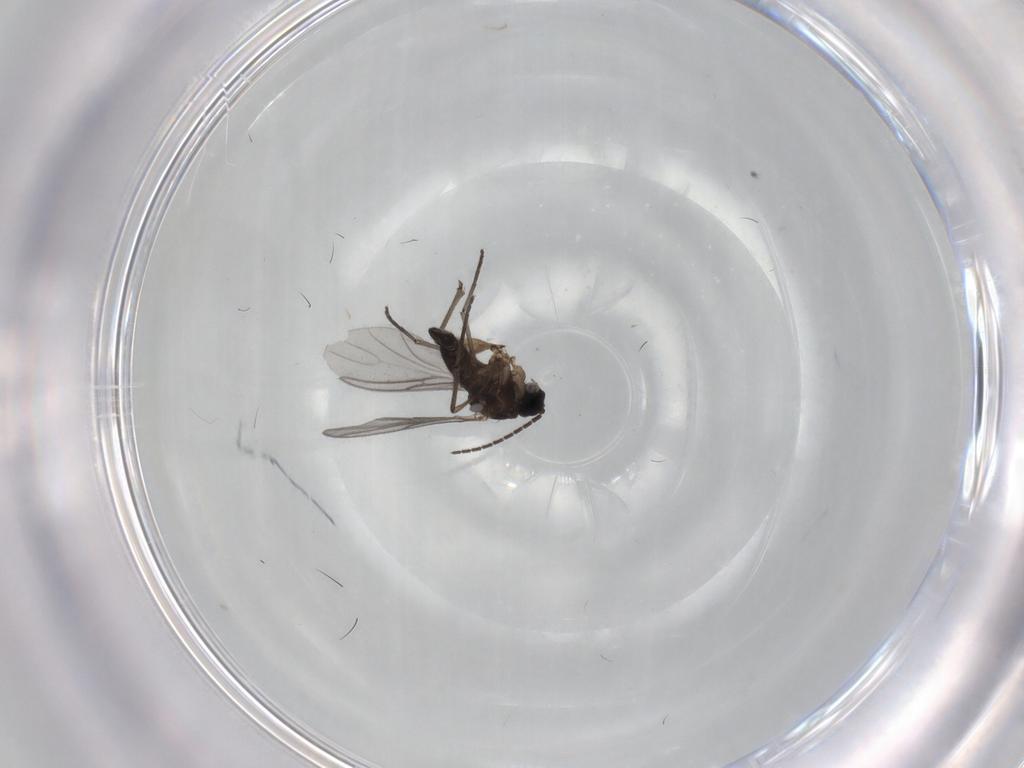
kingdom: Animalia
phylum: Arthropoda
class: Insecta
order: Diptera
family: Sciaridae
